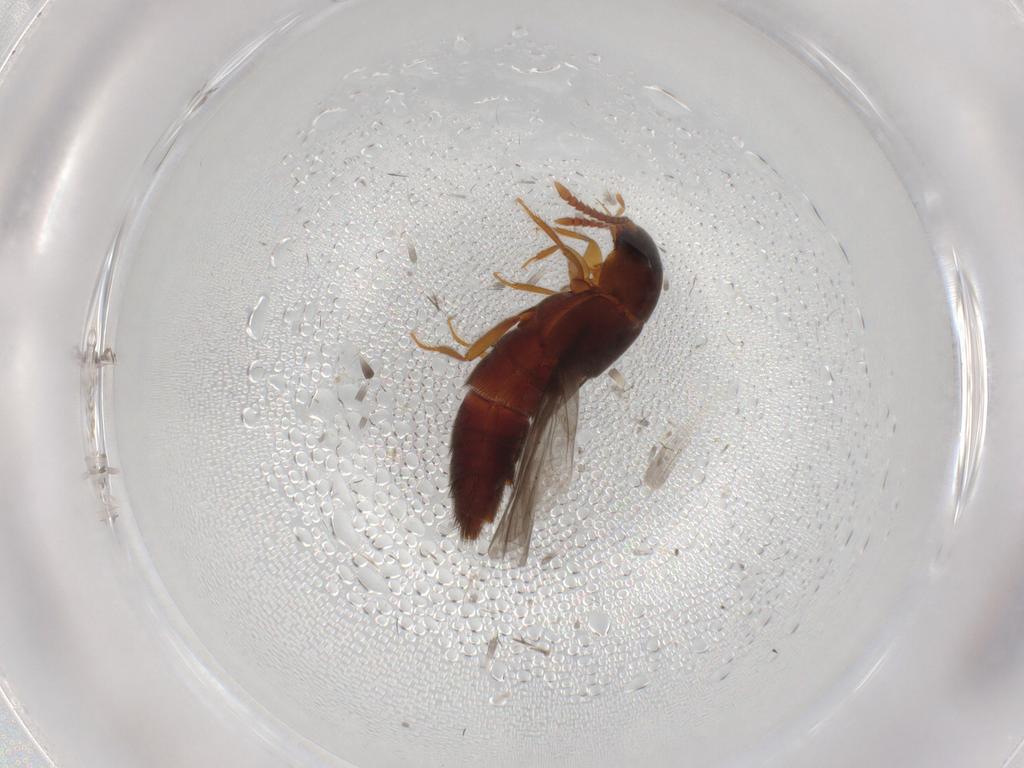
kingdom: Animalia
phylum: Arthropoda
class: Insecta
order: Coleoptera
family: Staphylinidae
